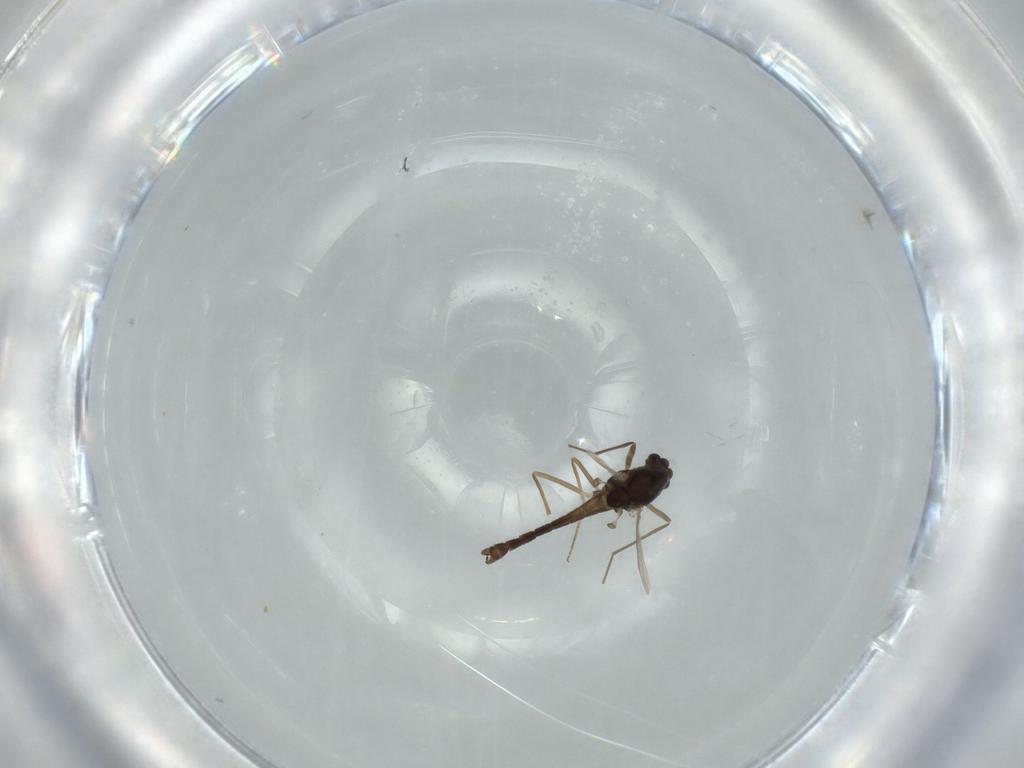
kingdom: Animalia
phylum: Arthropoda
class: Insecta
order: Diptera
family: Chironomidae
